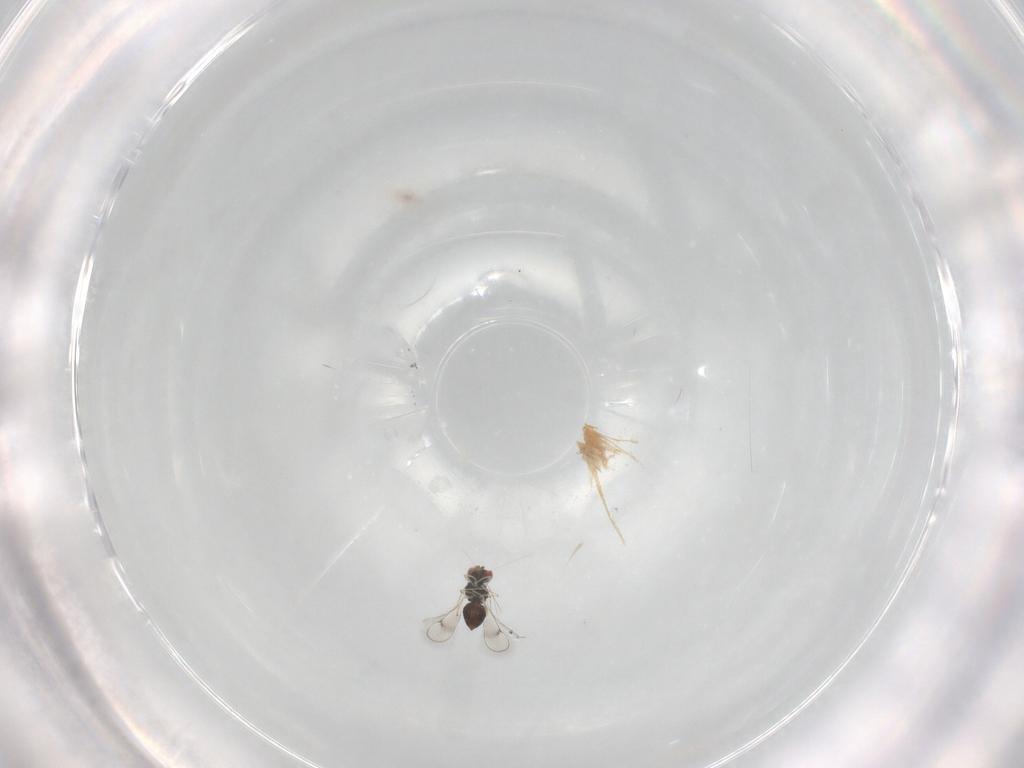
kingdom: Animalia
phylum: Arthropoda
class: Insecta
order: Hymenoptera
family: Eulophidae
